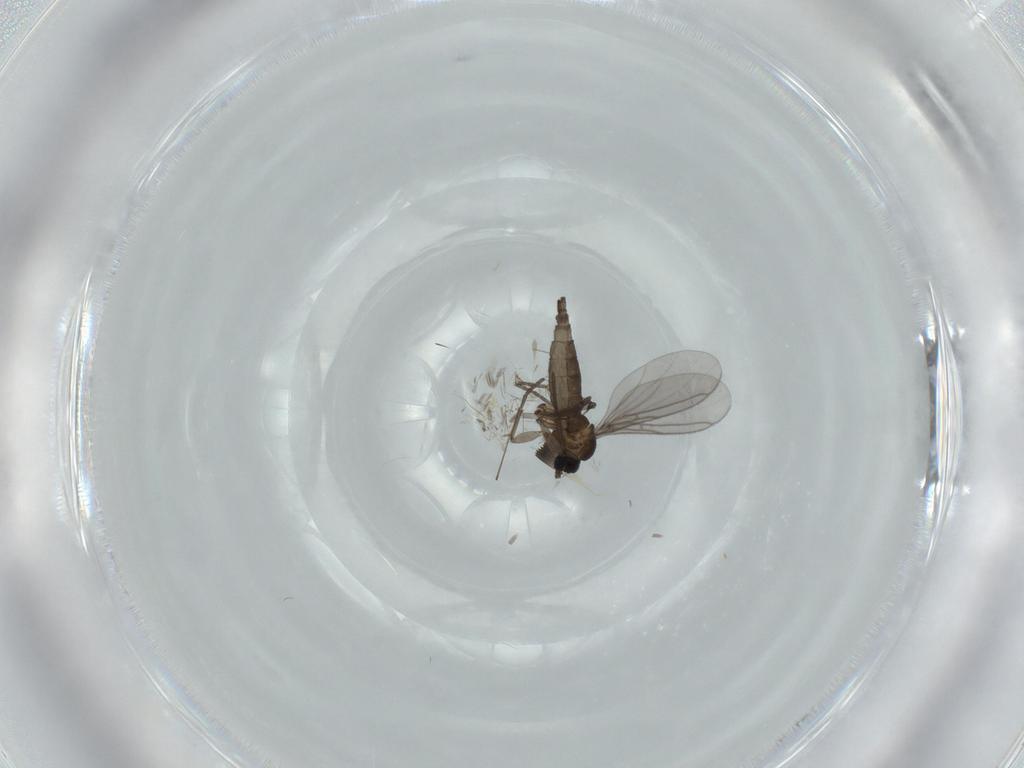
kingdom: Animalia
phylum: Arthropoda
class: Insecta
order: Diptera
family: Limoniidae
